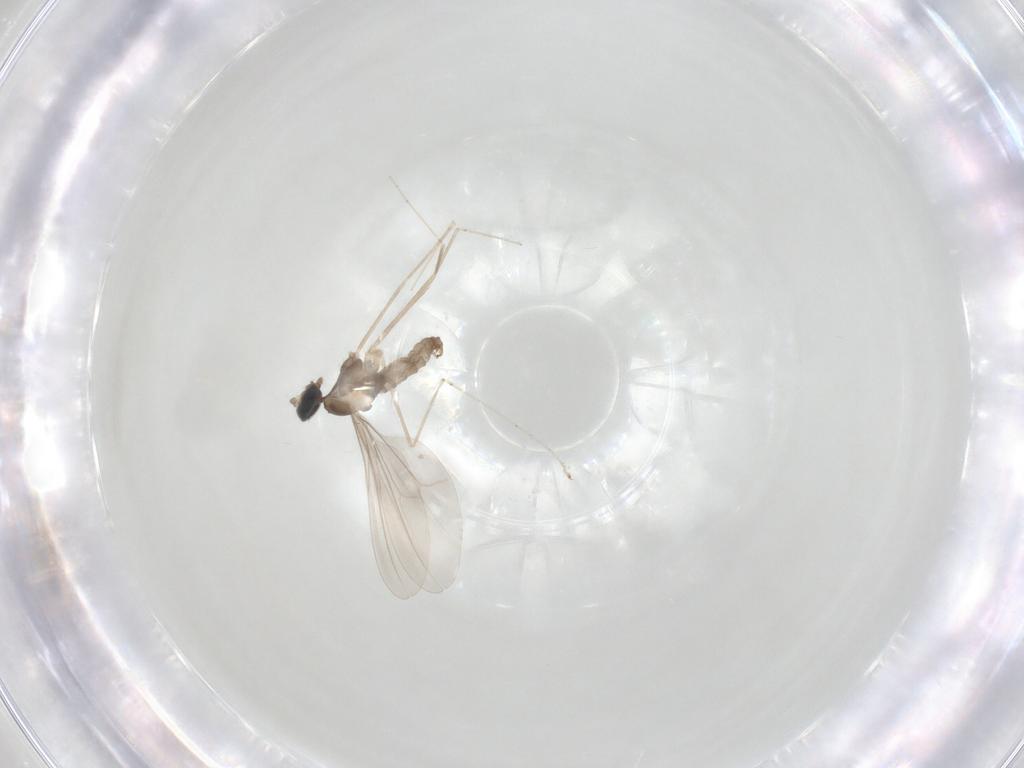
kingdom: Animalia
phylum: Arthropoda
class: Insecta
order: Diptera
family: Cecidomyiidae
